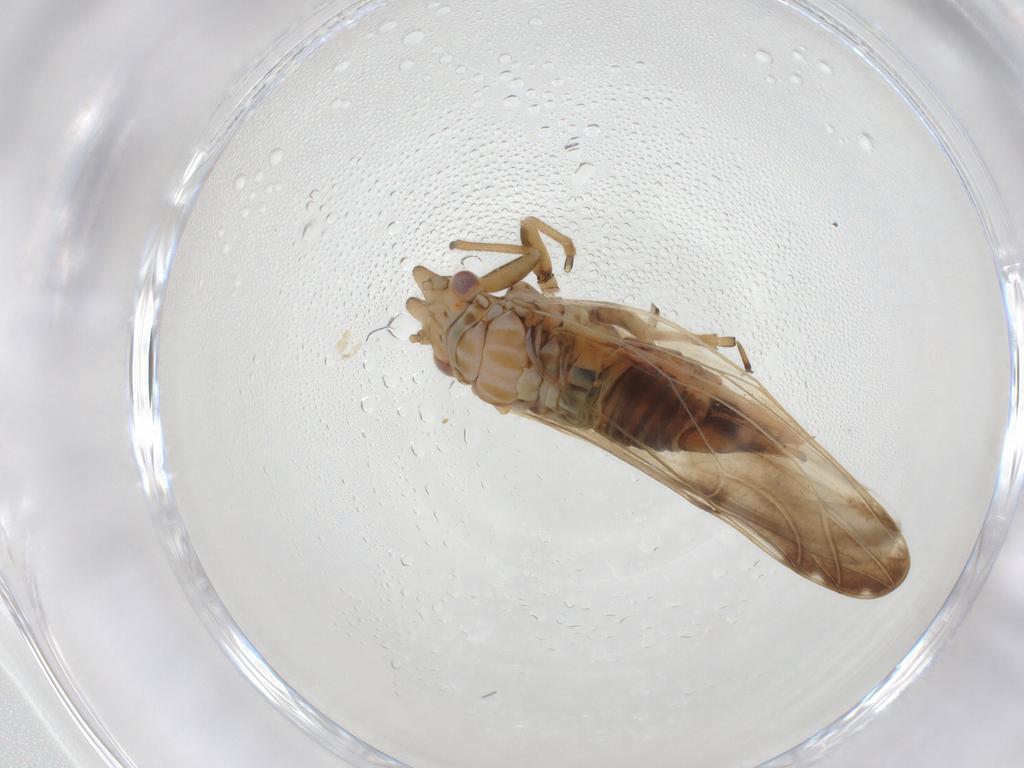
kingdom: Animalia
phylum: Arthropoda
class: Insecta
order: Hemiptera
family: Psyllidae
